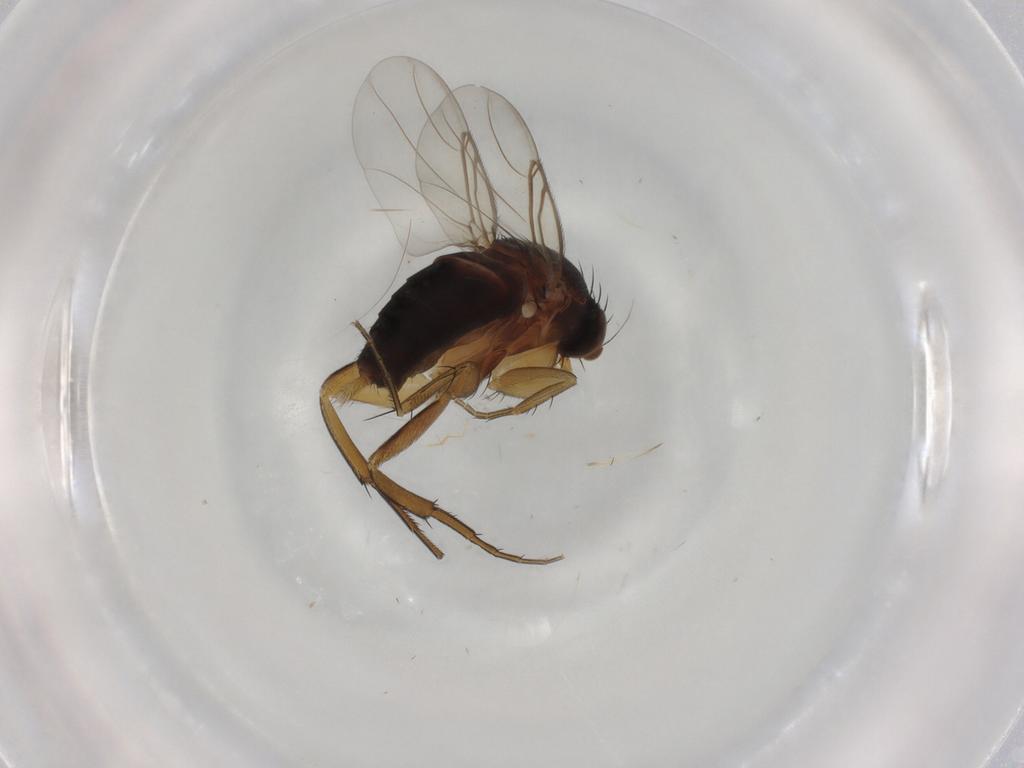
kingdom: Animalia
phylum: Arthropoda
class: Insecta
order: Diptera
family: Phoridae
